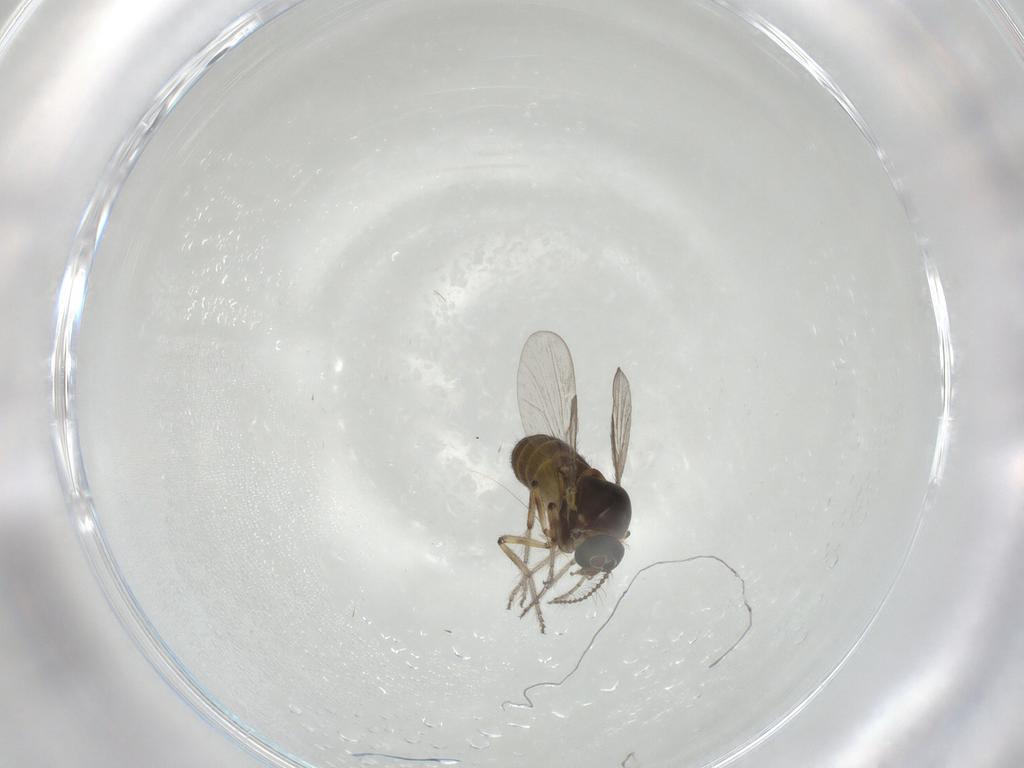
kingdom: Animalia
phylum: Arthropoda
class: Insecta
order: Diptera
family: Ceratopogonidae
